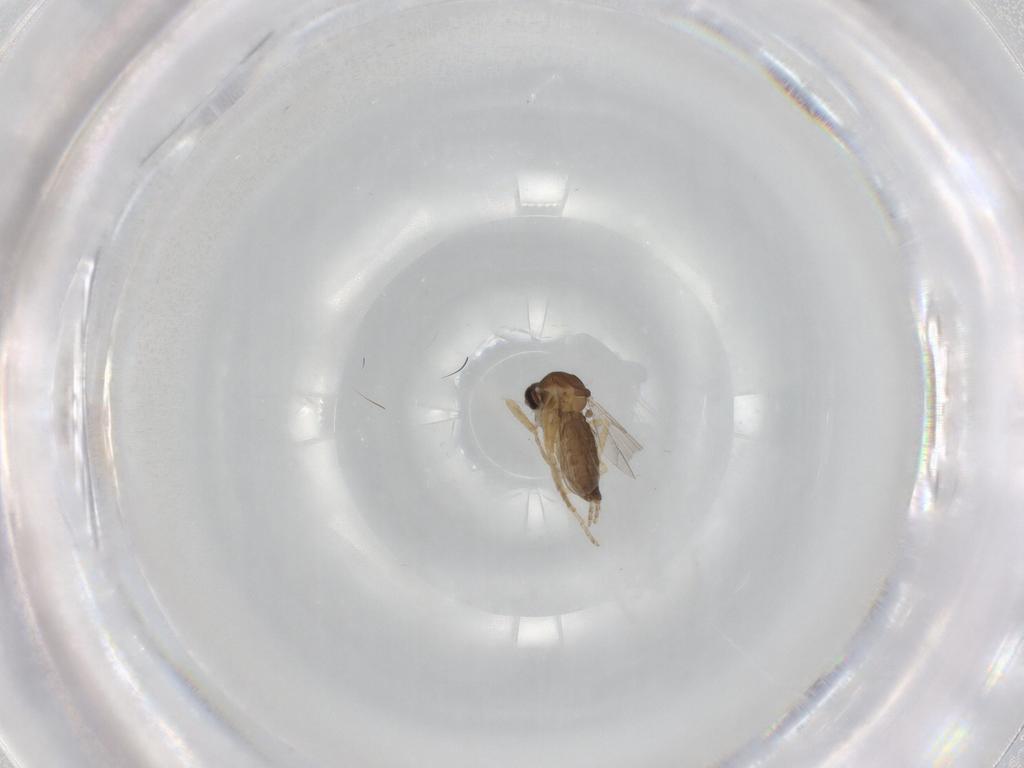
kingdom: Animalia
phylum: Arthropoda
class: Insecta
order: Diptera
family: Ceratopogonidae
